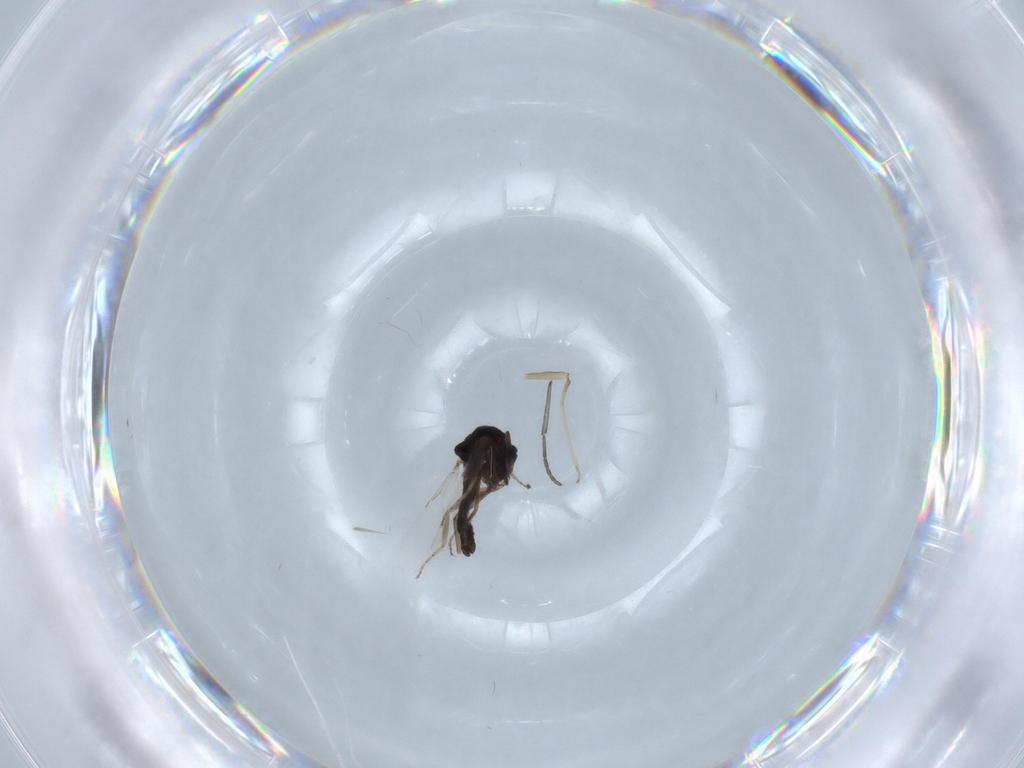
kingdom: Animalia
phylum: Arthropoda
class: Insecta
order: Diptera
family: Ceratopogonidae
